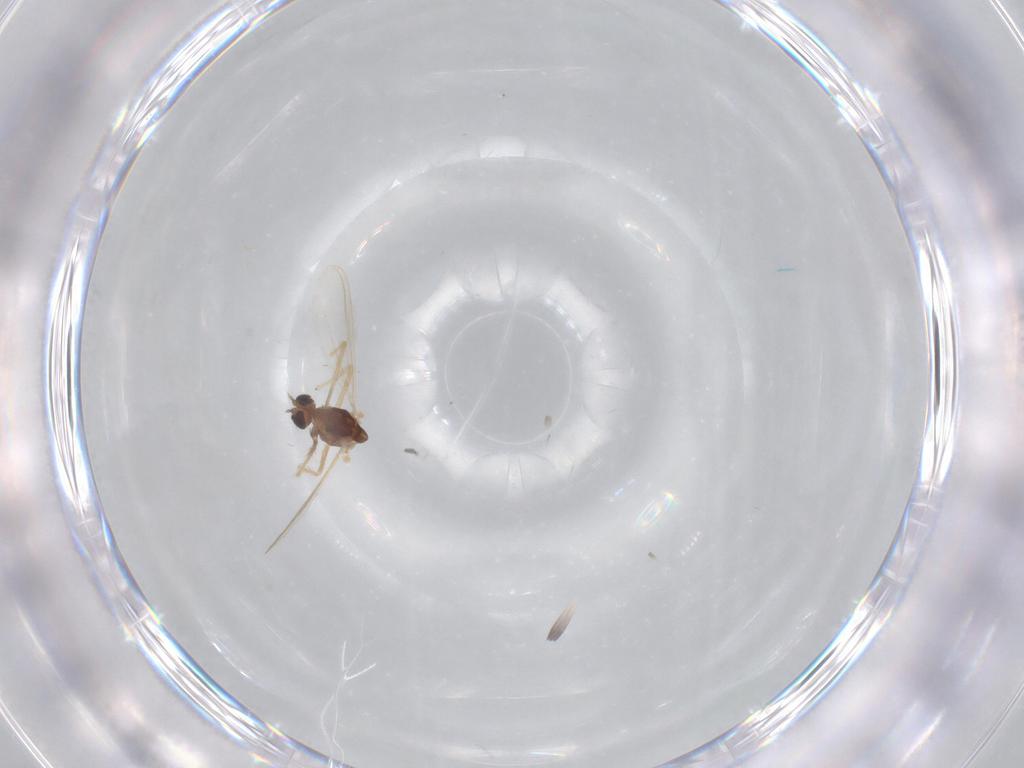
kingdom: Animalia
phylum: Arthropoda
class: Insecta
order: Diptera
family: Chironomidae
